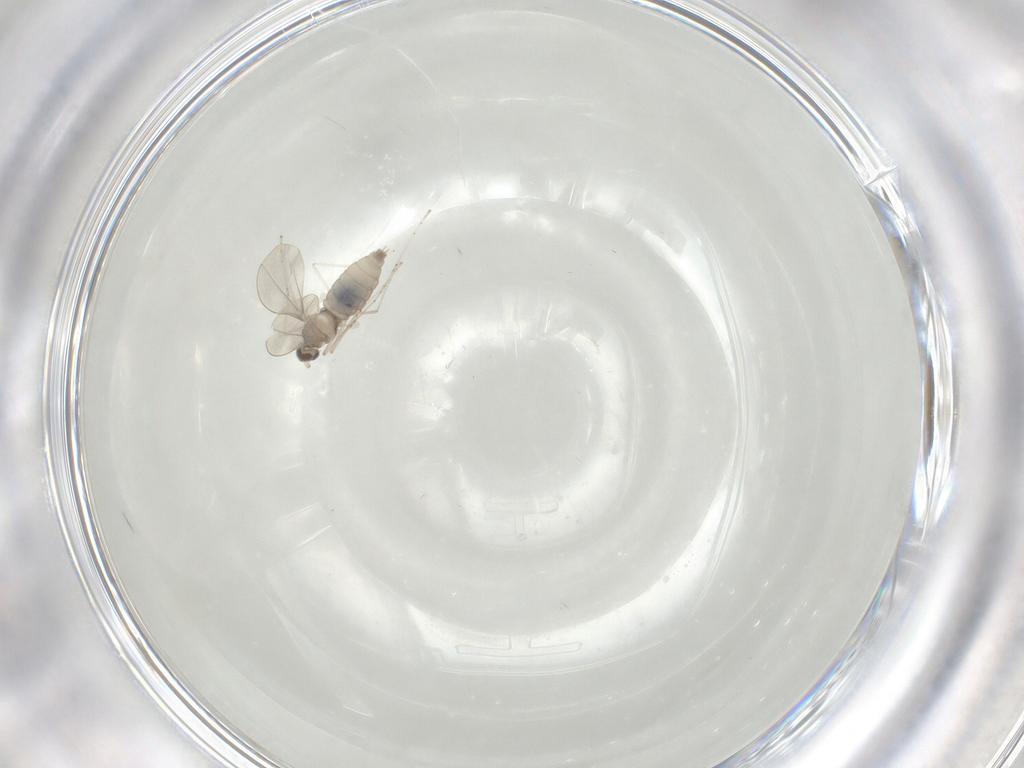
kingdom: Animalia
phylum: Arthropoda
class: Insecta
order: Diptera
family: Cecidomyiidae
